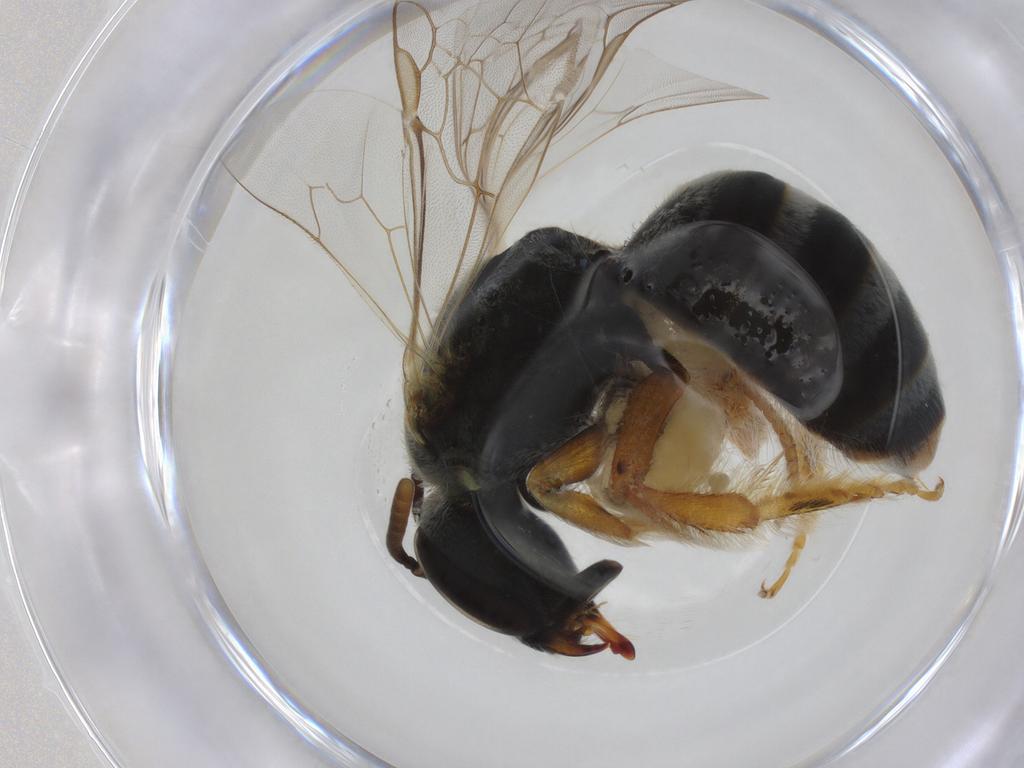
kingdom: Animalia
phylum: Arthropoda
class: Insecta
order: Hymenoptera
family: Halictidae
